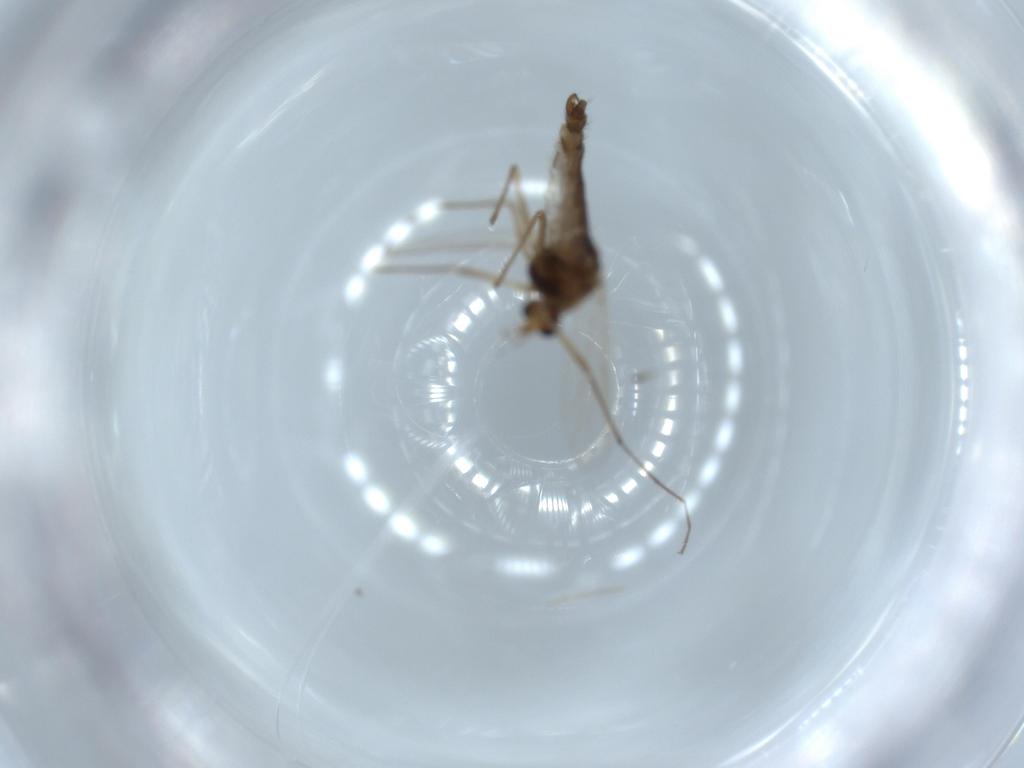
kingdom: Animalia
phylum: Arthropoda
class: Insecta
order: Diptera
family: Chironomidae
